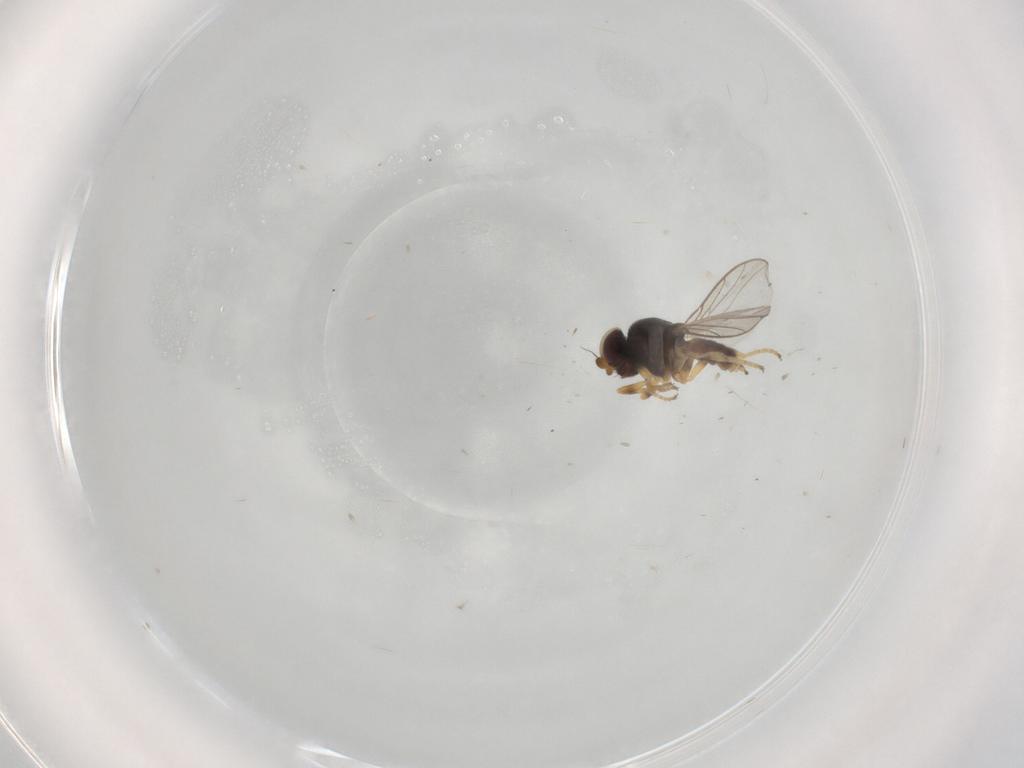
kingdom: Animalia
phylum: Arthropoda
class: Insecta
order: Diptera
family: Chloropidae
